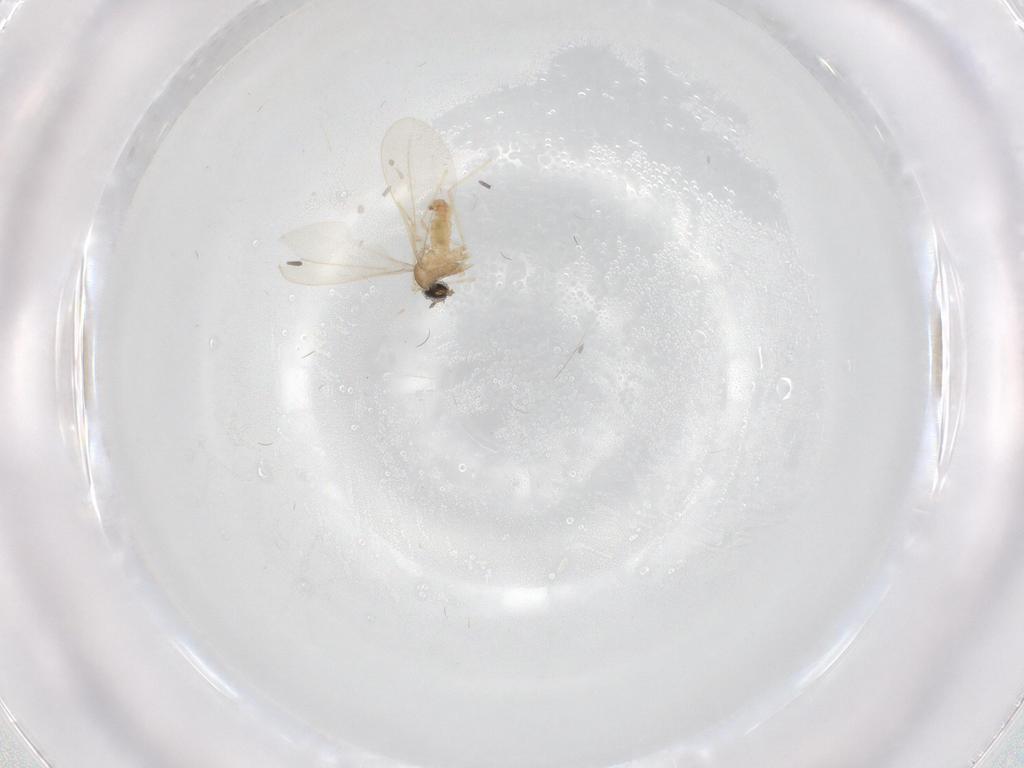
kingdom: Animalia
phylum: Arthropoda
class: Insecta
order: Diptera
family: Cecidomyiidae
